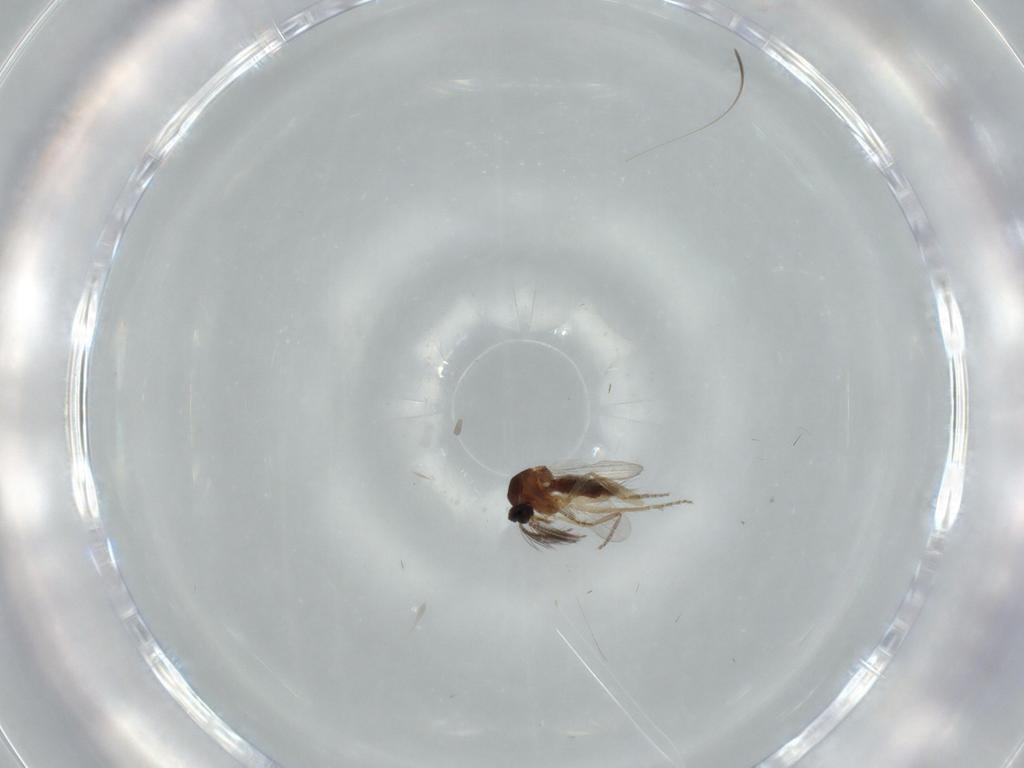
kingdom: Animalia
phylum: Arthropoda
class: Insecta
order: Diptera
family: Ceratopogonidae
